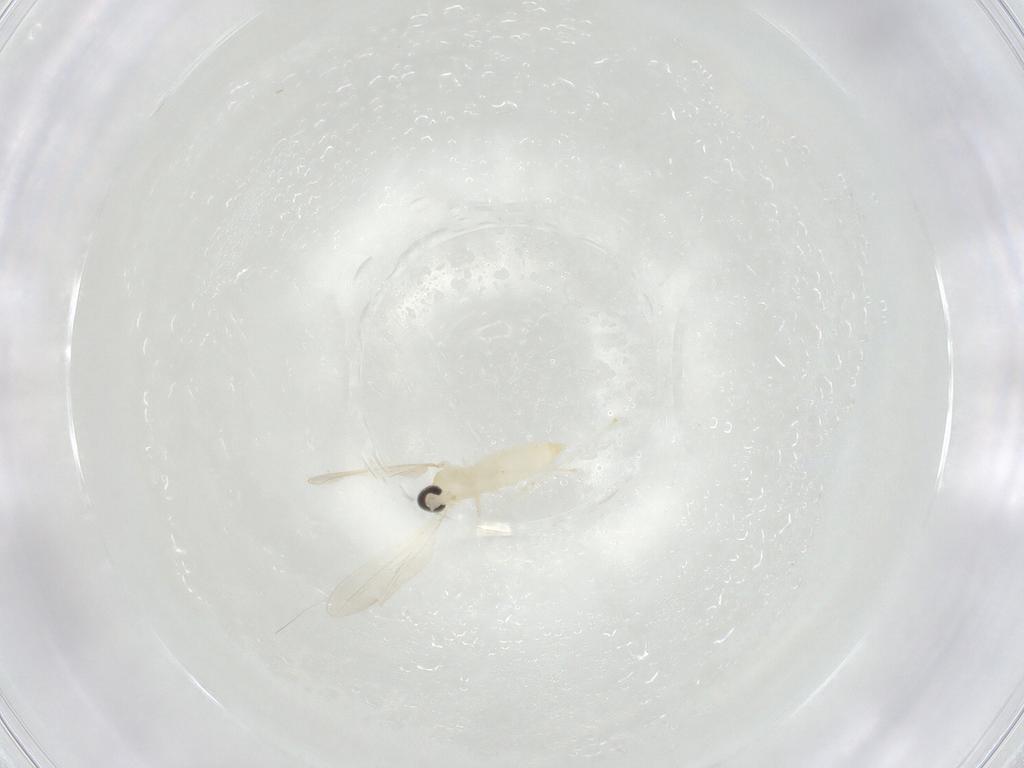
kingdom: Animalia
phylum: Arthropoda
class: Insecta
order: Diptera
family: Cecidomyiidae
